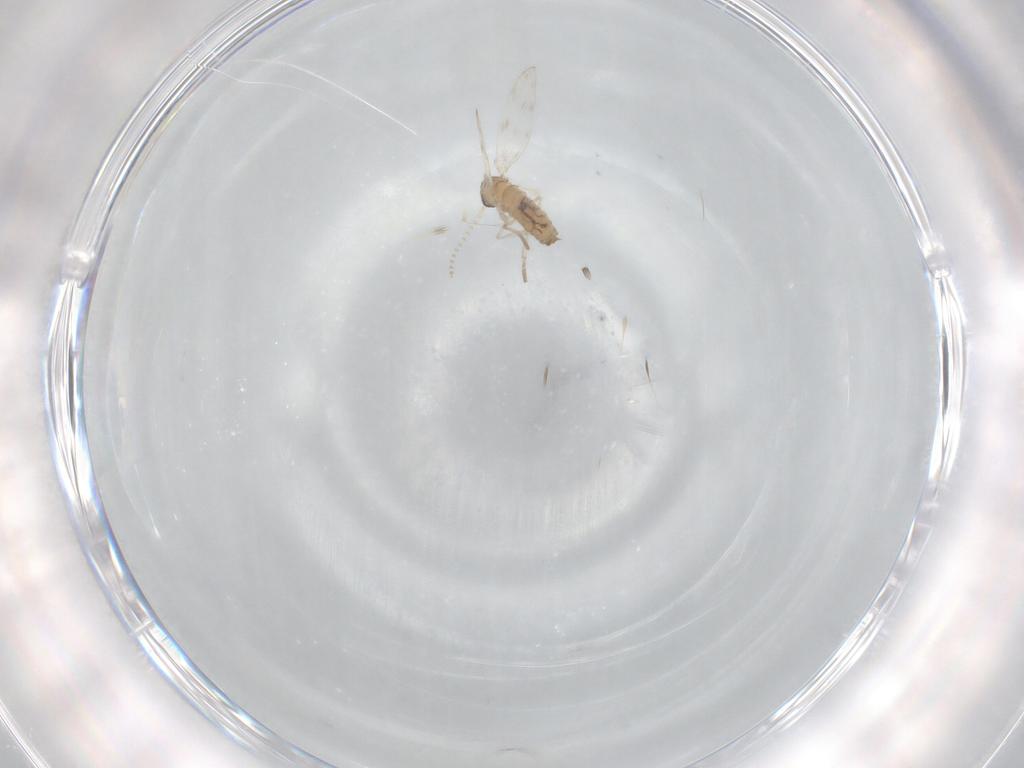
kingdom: Animalia
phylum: Arthropoda
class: Insecta
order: Diptera
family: Psychodidae
